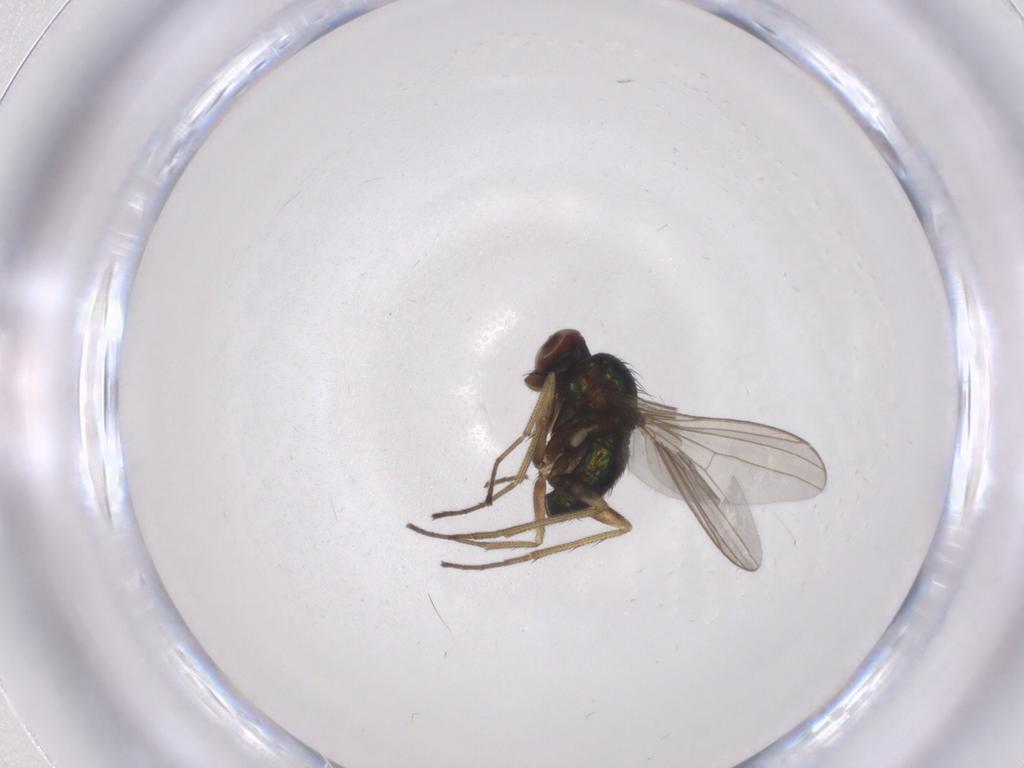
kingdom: Animalia
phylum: Arthropoda
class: Insecta
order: Diptera
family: Dolichopodidae
